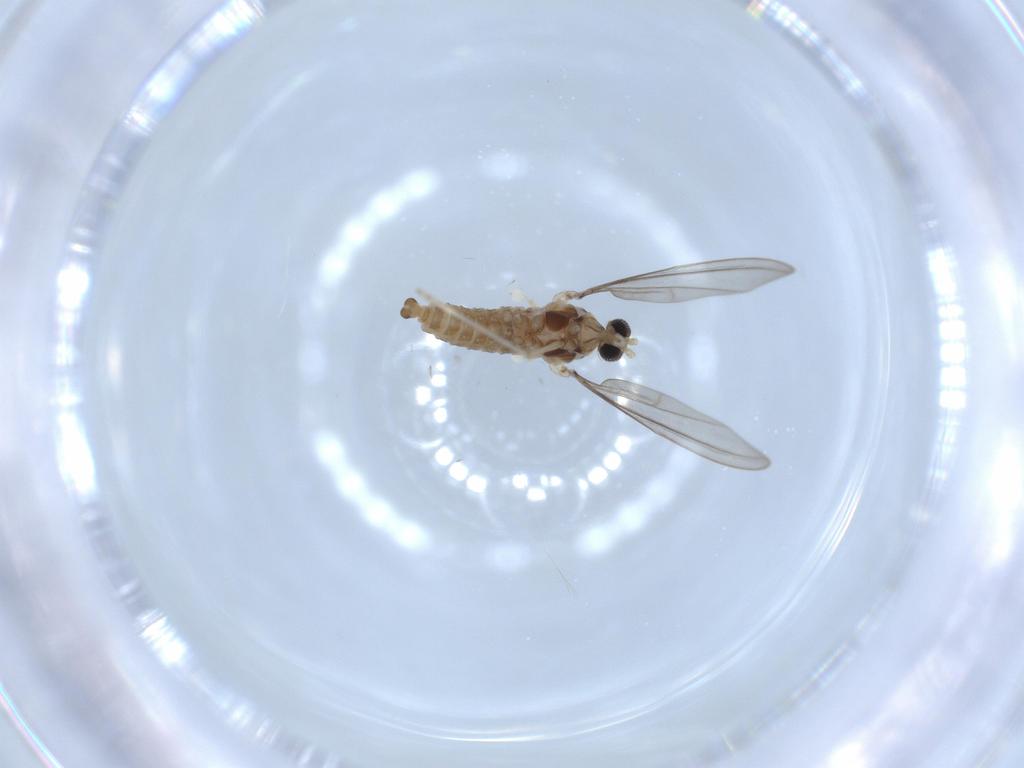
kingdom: Animalia
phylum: Arthropoda
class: Insecta
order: Diptera
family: Cecidomyiidae
